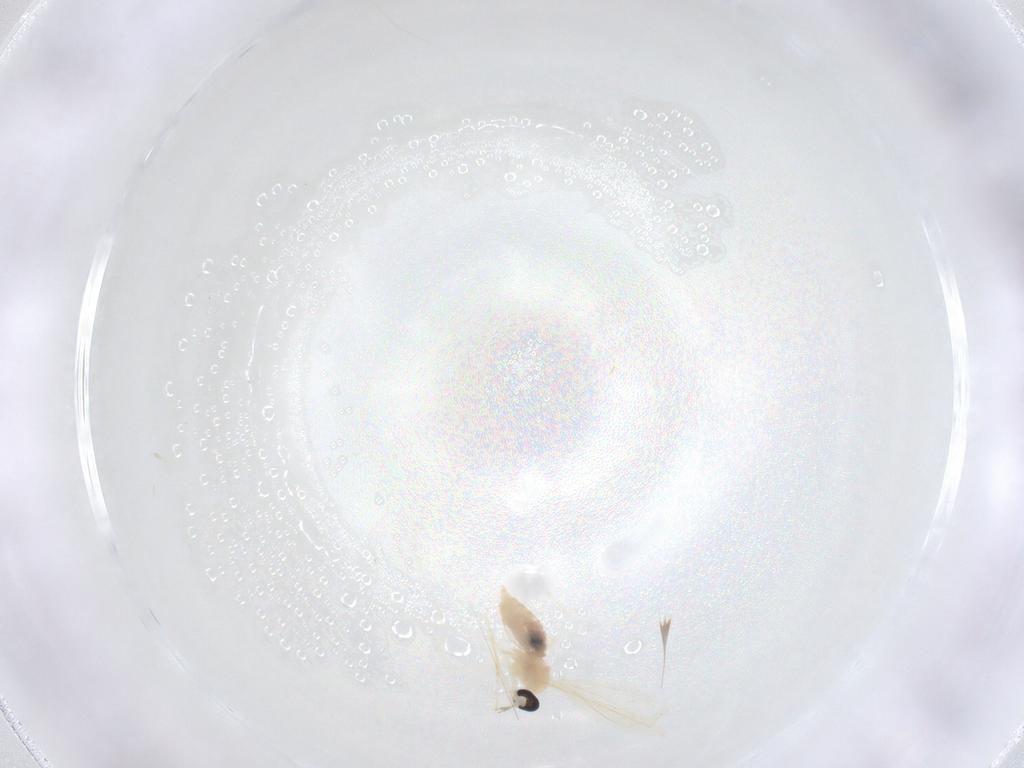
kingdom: Animalia
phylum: Arthropoda
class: Insecta
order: Diptera
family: Cecidomyiidae
